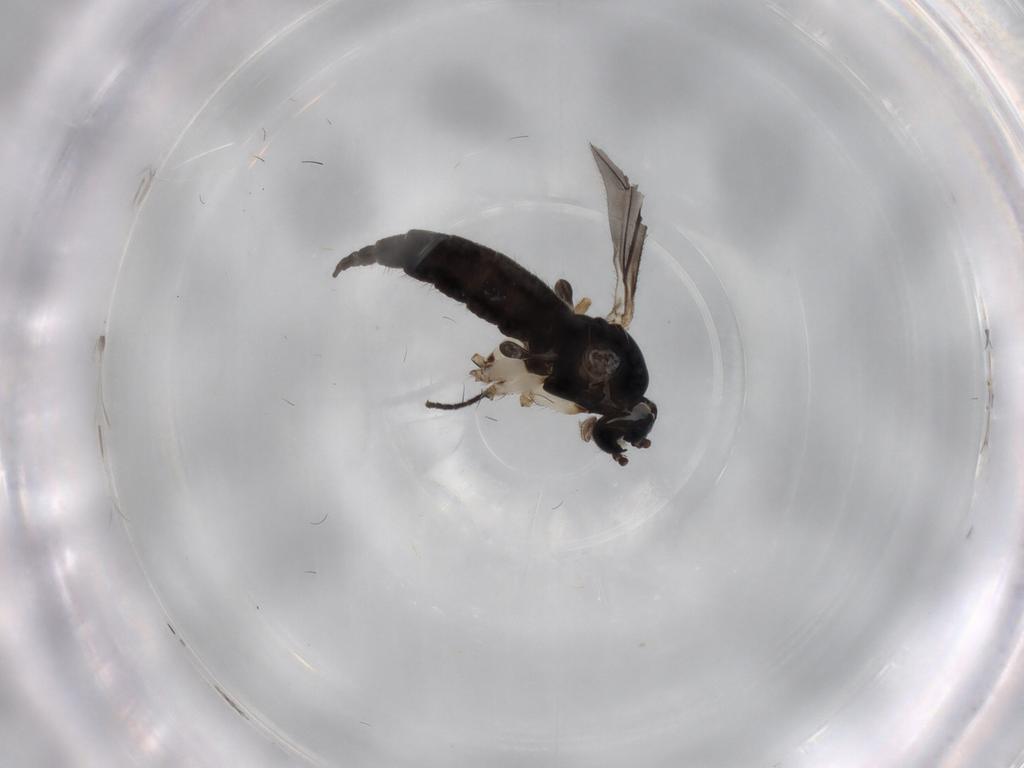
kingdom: Animalia
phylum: Arthropoda
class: Insecta
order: Diptera
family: Sciaridae
